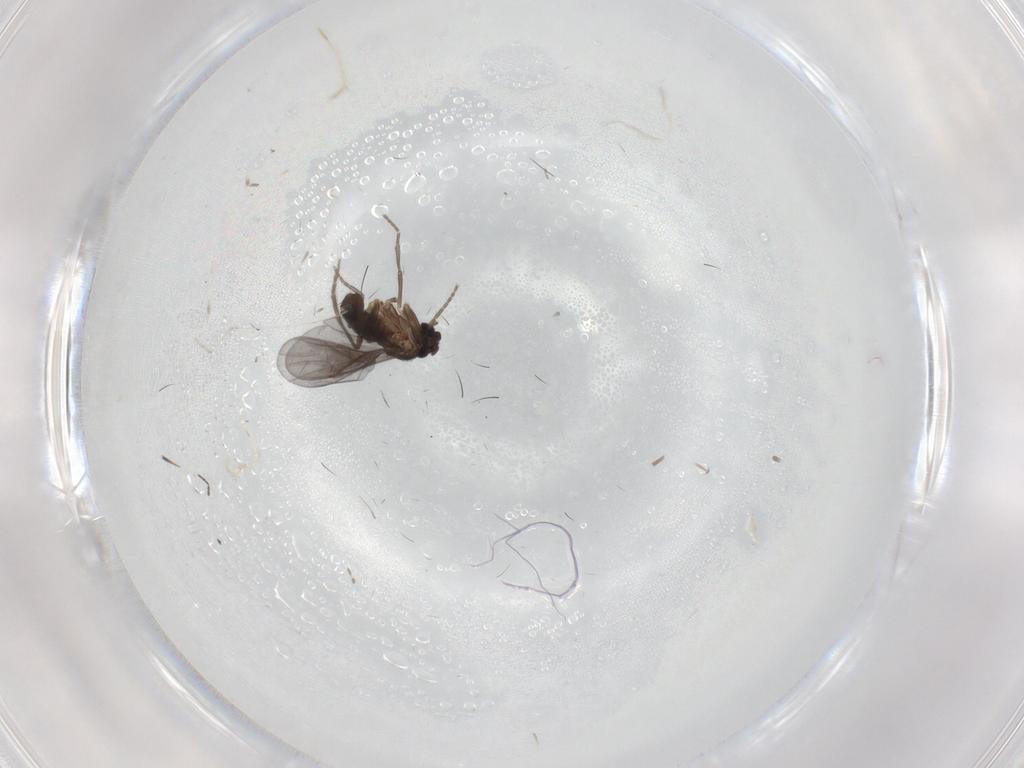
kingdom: Animalia
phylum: Arthropoda
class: Insecta
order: Diptera
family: Phoridae
